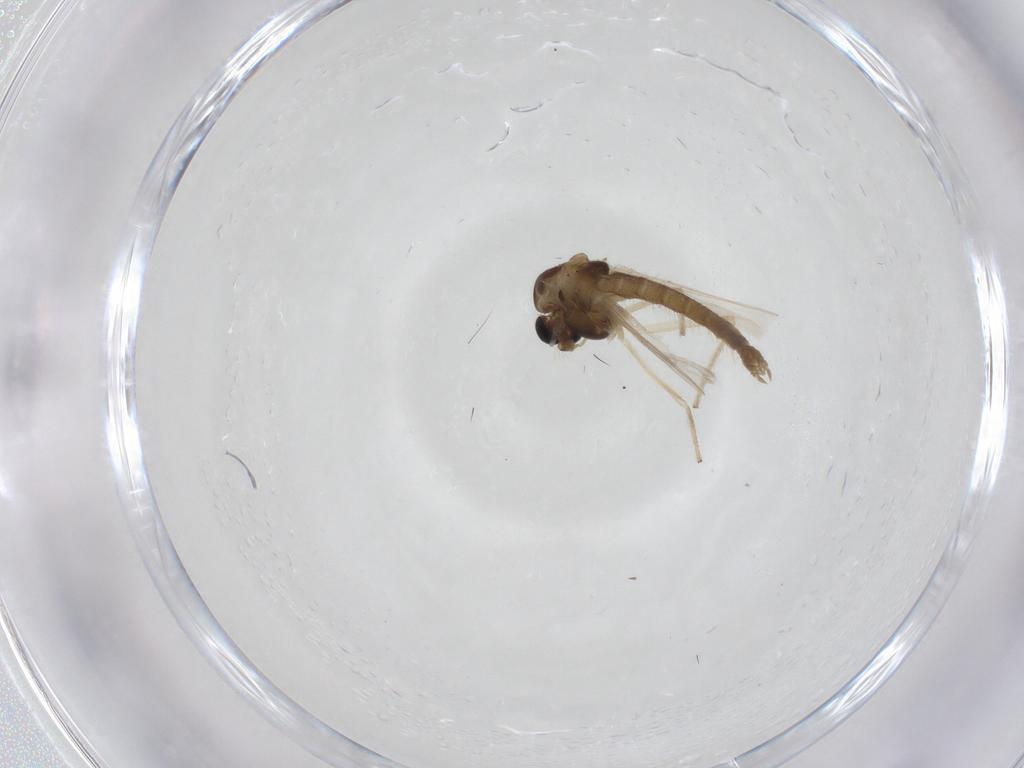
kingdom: Animalia
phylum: Arthropoda
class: Insecta
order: Diptera
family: Chironomidae
